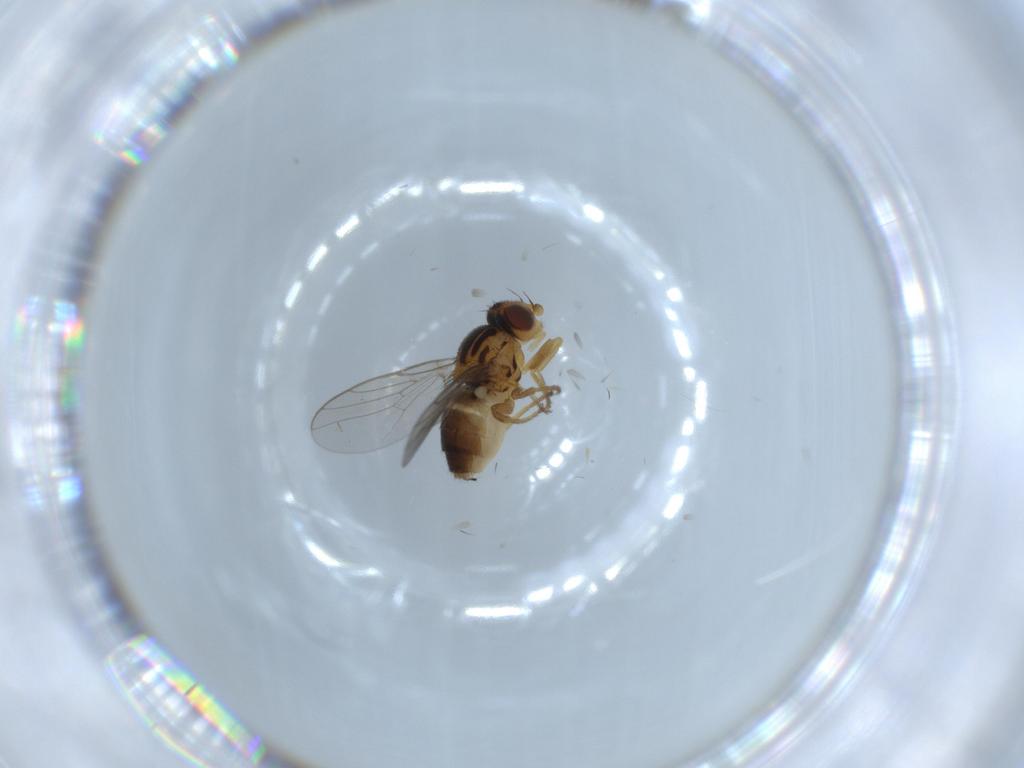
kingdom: Animalia
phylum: Arthropoda
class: Insecta
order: Diptera
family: Chloropidae
